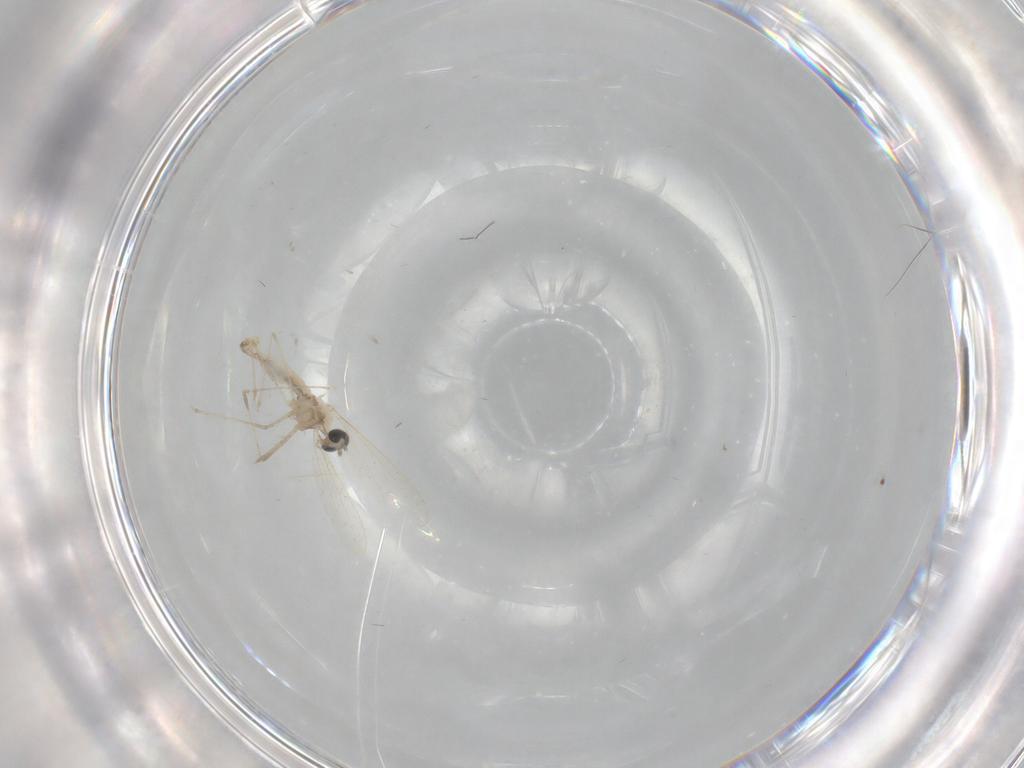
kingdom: Animalia
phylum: Arthropoda
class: Insecta
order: Diptera
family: Cecidomyiidae
